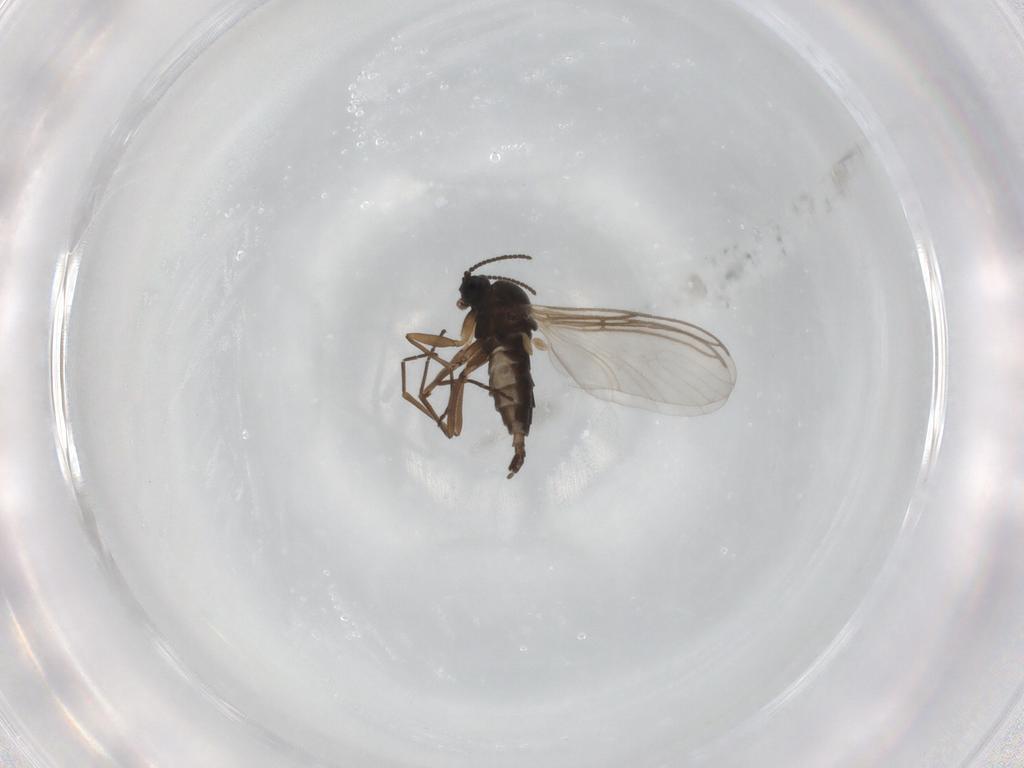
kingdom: Animalia
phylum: Arthropoda
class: Insecta
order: Diptera
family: Sciaridae
